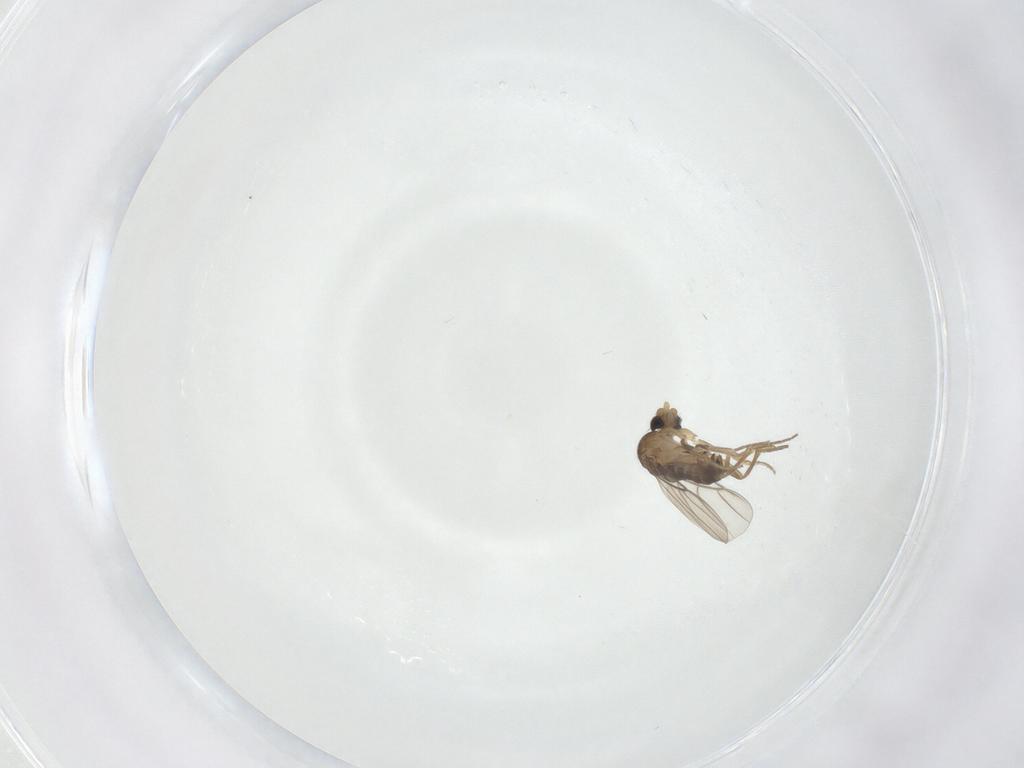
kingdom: Animalia
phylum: Arthropoda
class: Insecta
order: Diptera
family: Phoridae
